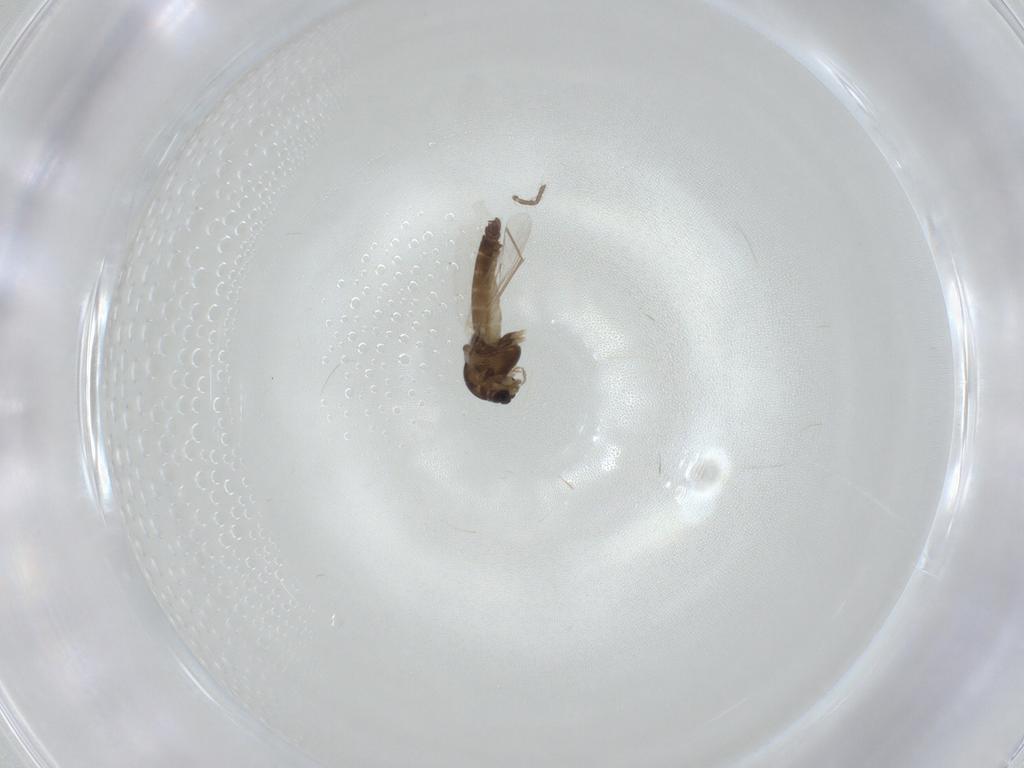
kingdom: Animalia
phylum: Arthropoda
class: Insecta
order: Diptera
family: Chironomidae
